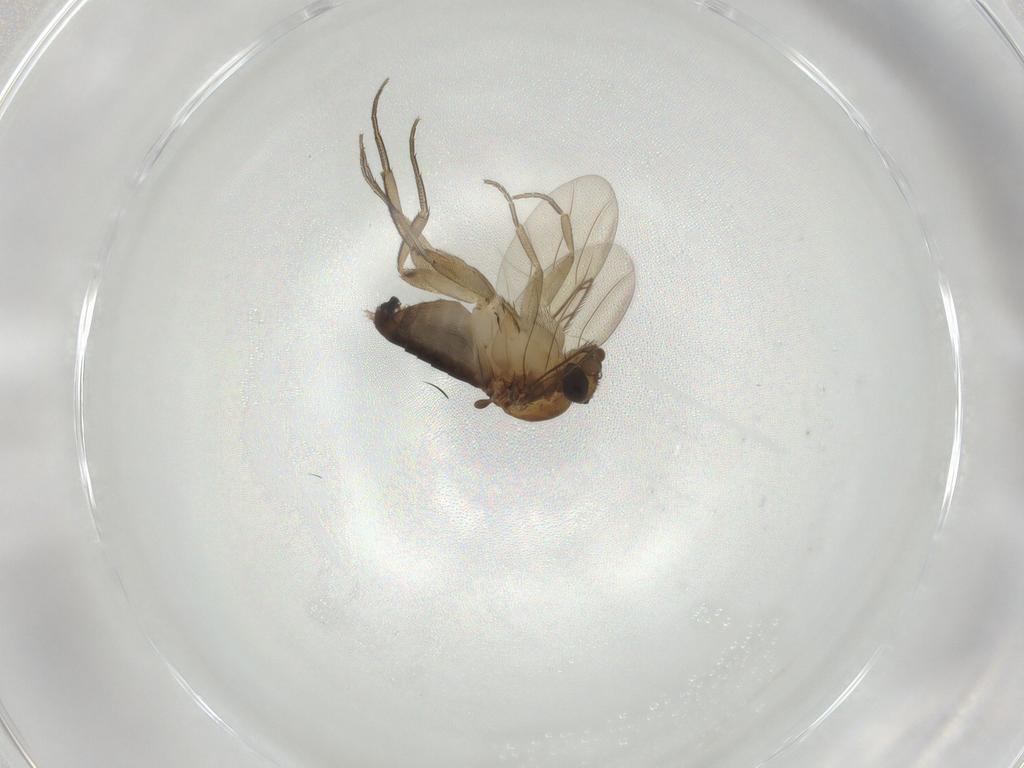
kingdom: Animalia
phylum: Arthropoda
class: Insecta
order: Diptera
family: Phoridae
